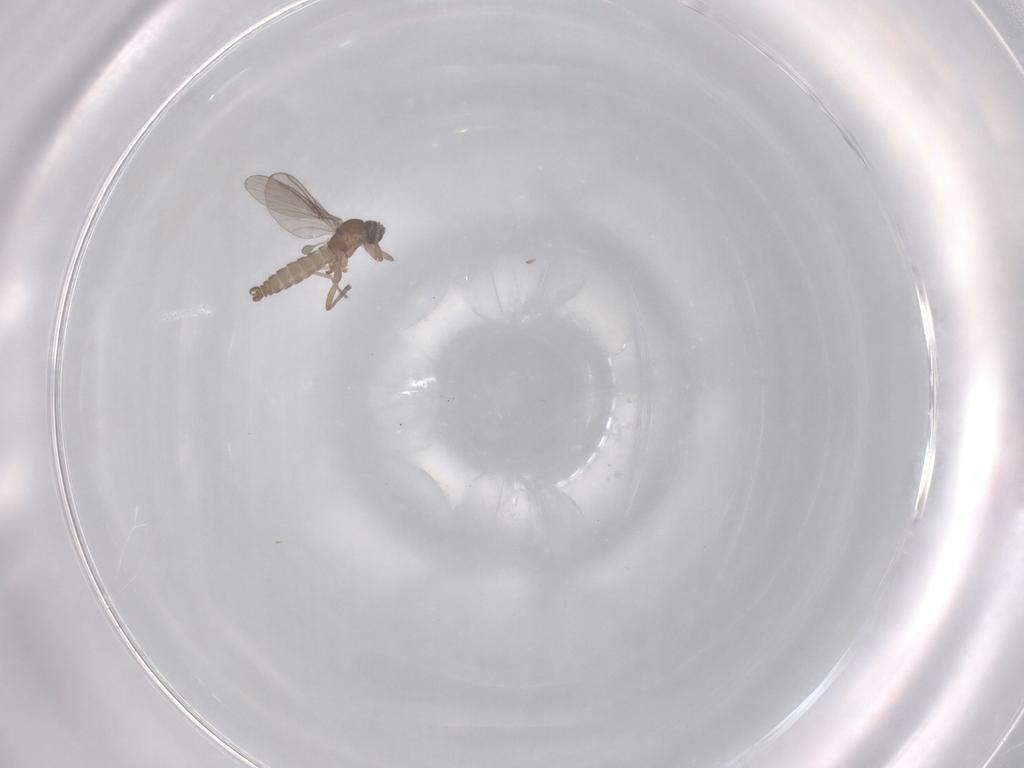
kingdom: Animalia
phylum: Arthropoda
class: Insecta
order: Diptera
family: Sciaridae
